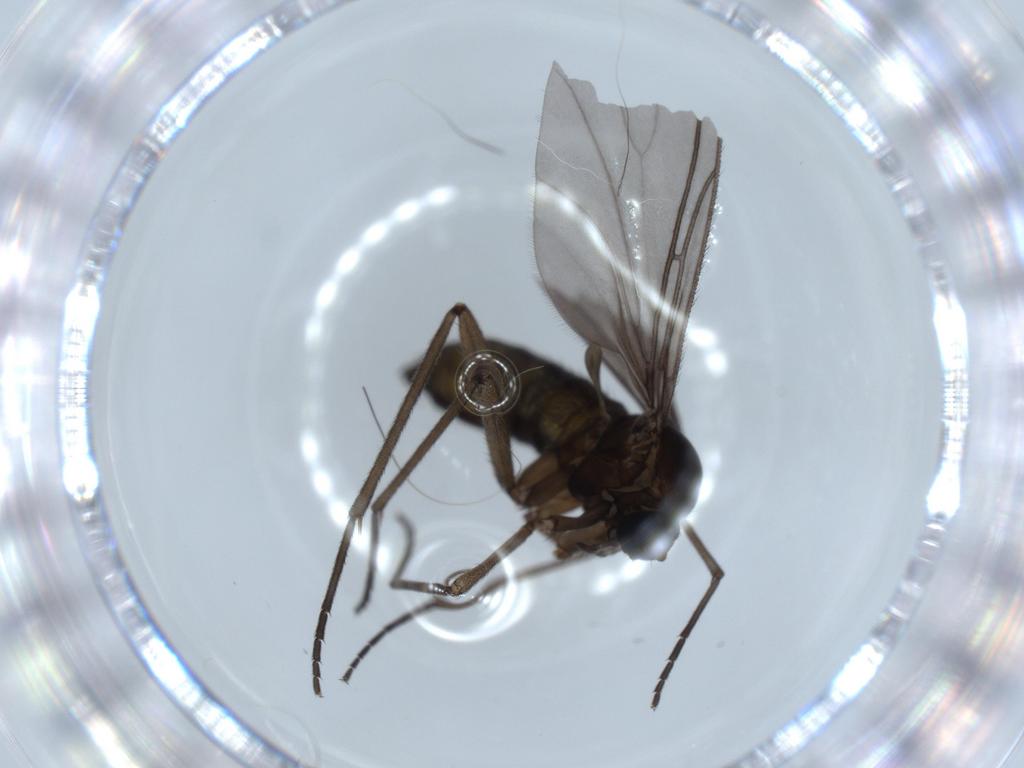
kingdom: Animalia
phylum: Arthropoda
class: Insecta
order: Diptera
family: Sciaridae
